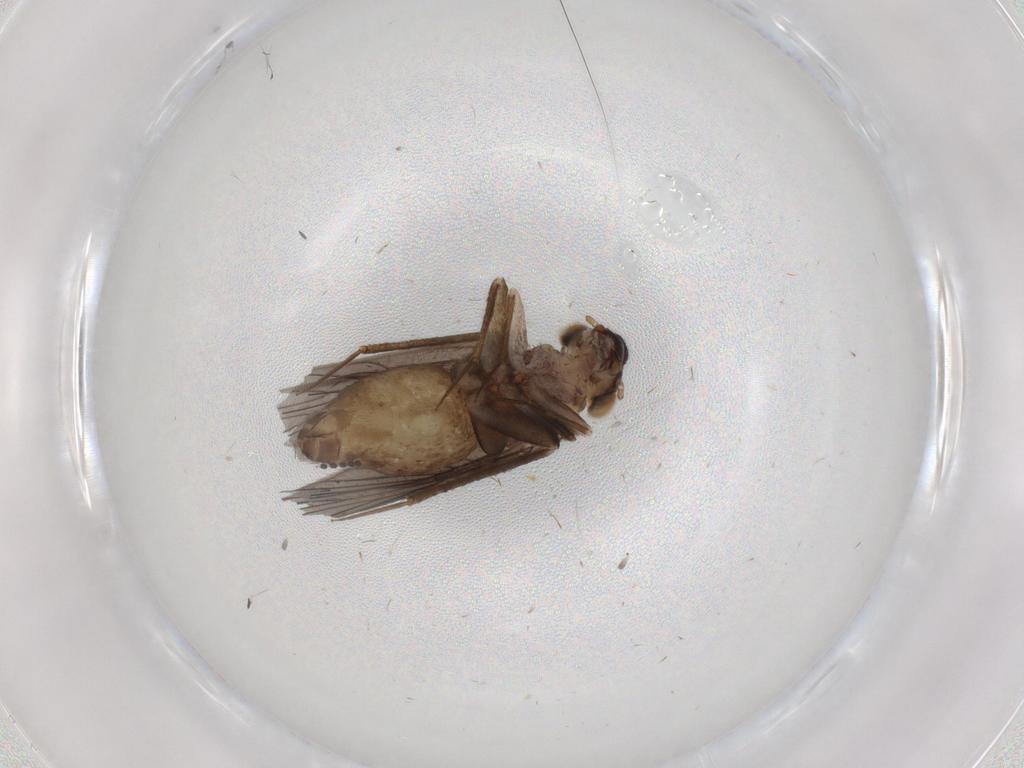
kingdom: Animalia
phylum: Arthropoda
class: Insecta
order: Psocodea
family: Lepidopsocidae
